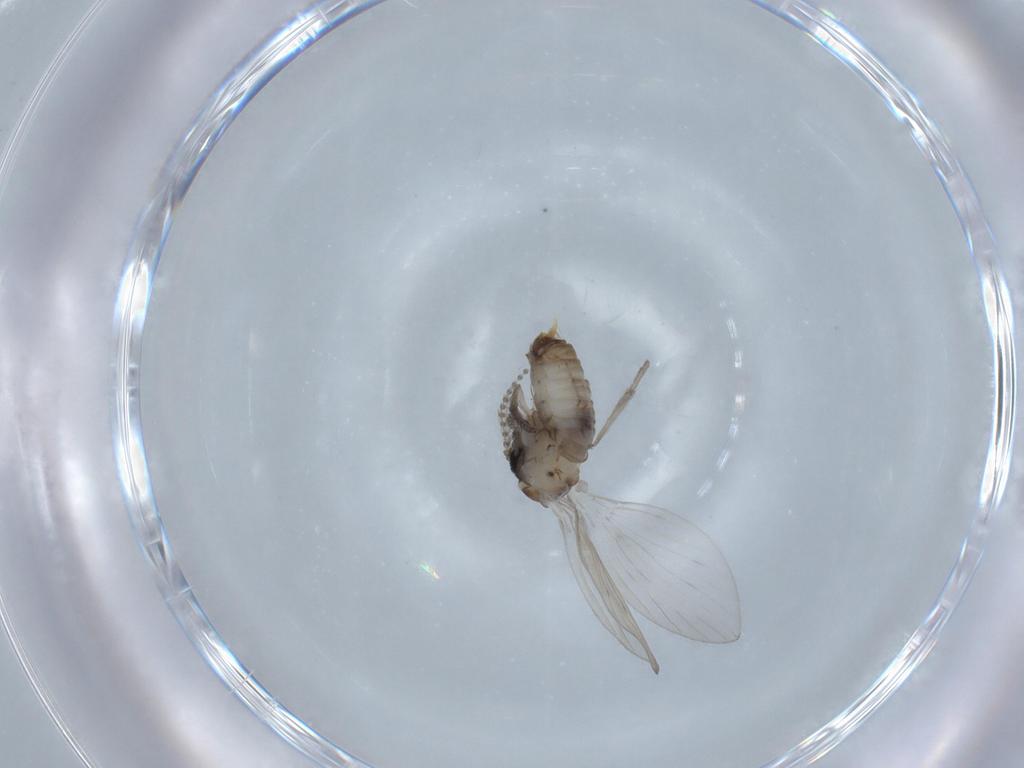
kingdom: Animalia
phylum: Arthropoda
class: Insecta
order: Diptera
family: Psychodidae
